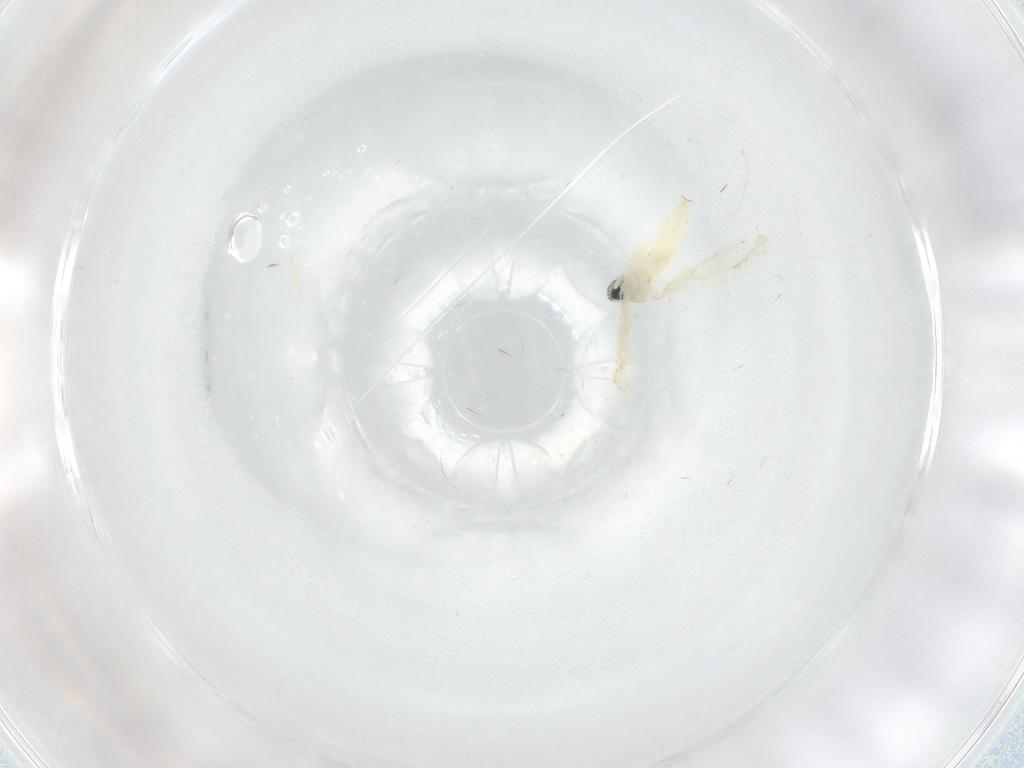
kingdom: Animalia
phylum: Arthropoda
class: Insecta
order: Diptera
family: Cecidomyiidae
